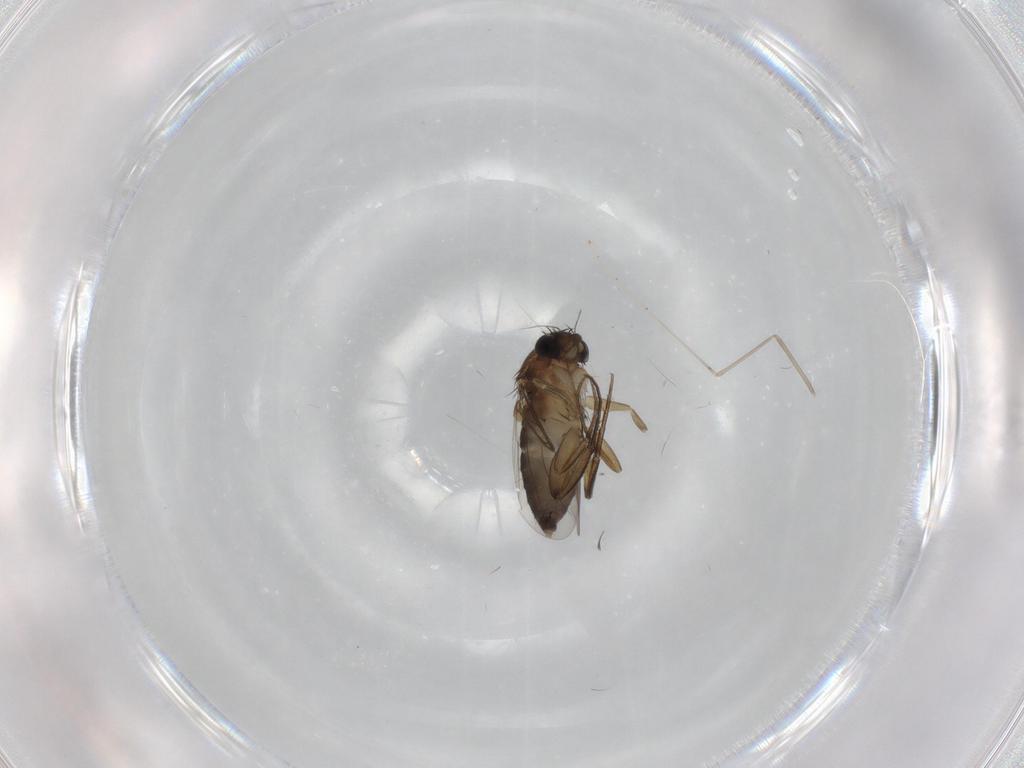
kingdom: Animalia
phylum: Arthropoda
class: Insecta
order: Diptera
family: Phoridae
